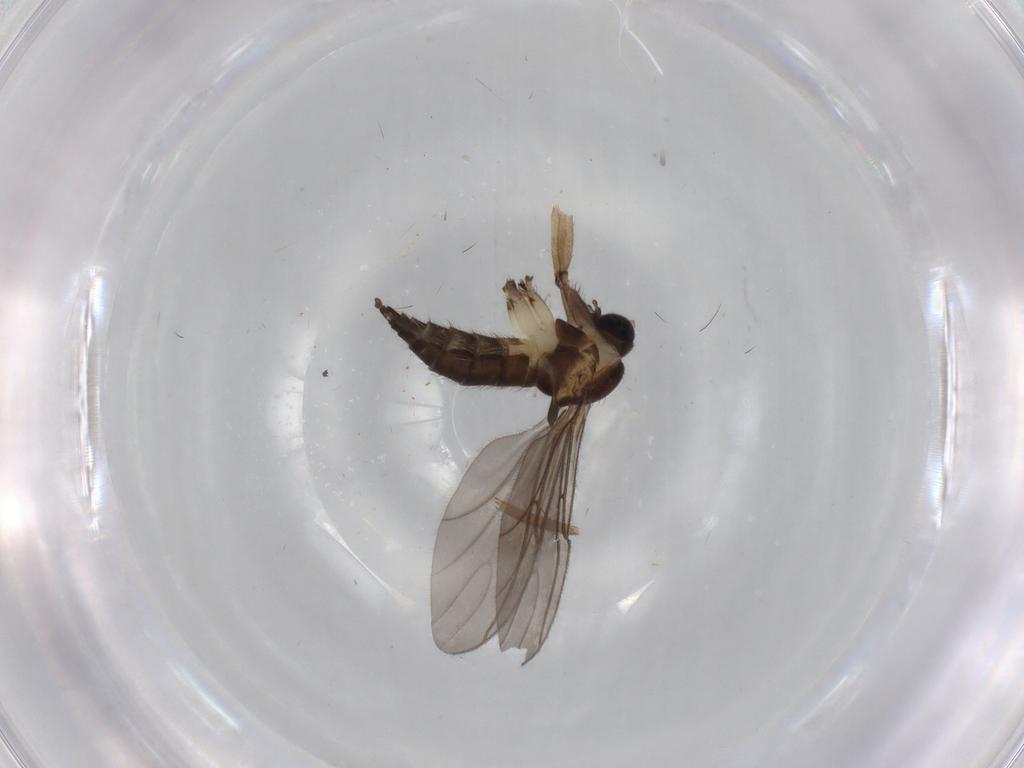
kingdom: Animalia
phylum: Arthropoda
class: Insecta
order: Diptera
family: Sciaridae
